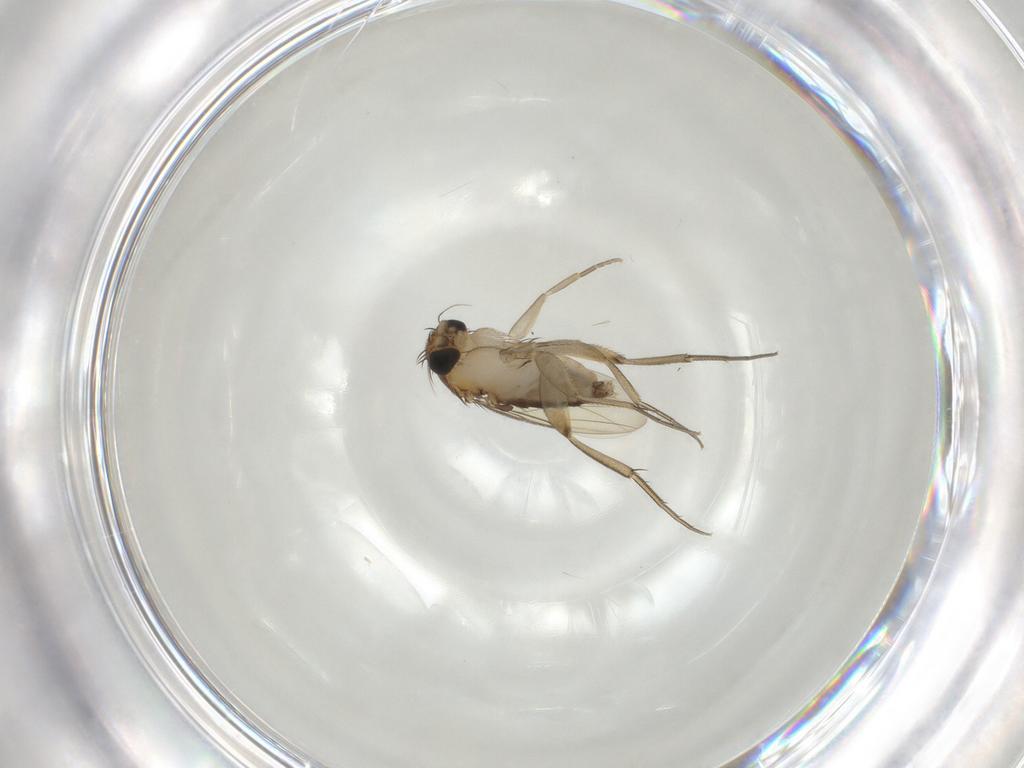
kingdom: Animalia
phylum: Arthropoda
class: Insecta
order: Diptera
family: Phoridae
